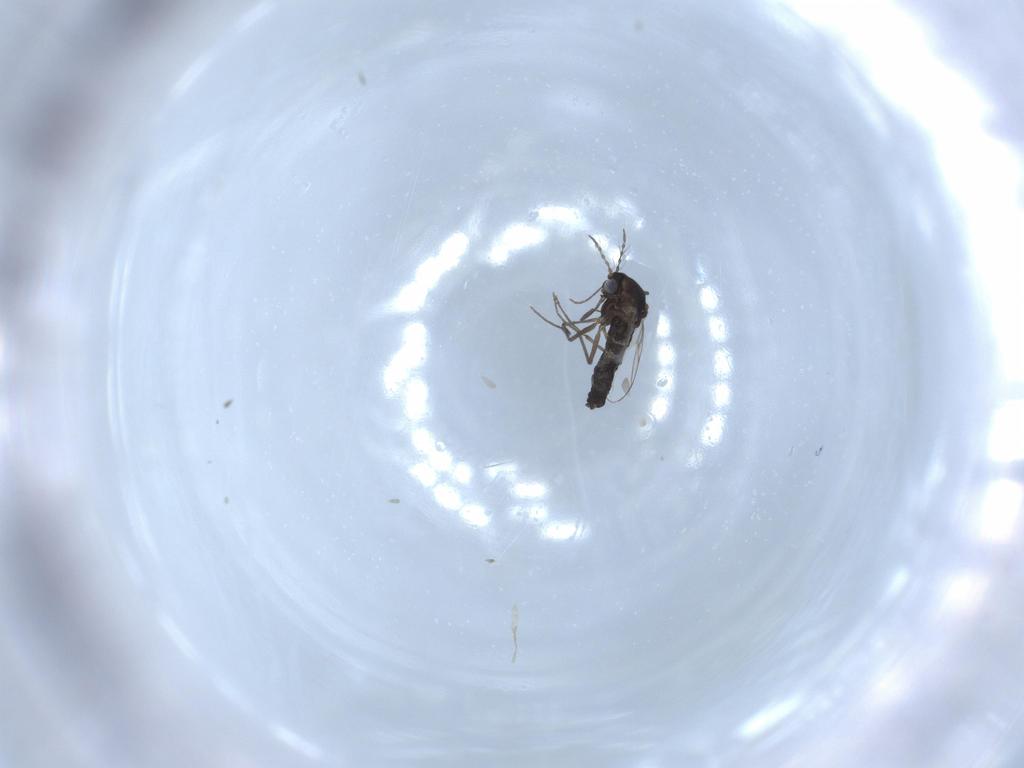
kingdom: Animalia
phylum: Arthropoda
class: Insecta
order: Diptera
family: Chironomidae
